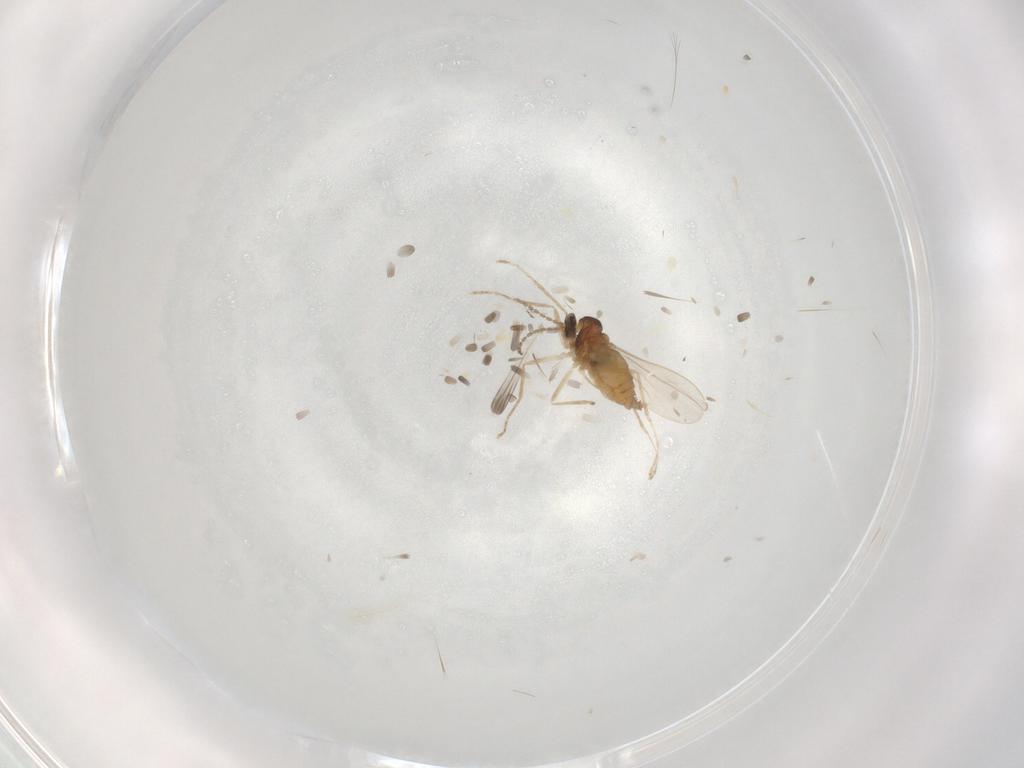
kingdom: Animalia
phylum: Arthropoda
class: Insecta
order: Diptera
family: Cecidomyiidae
